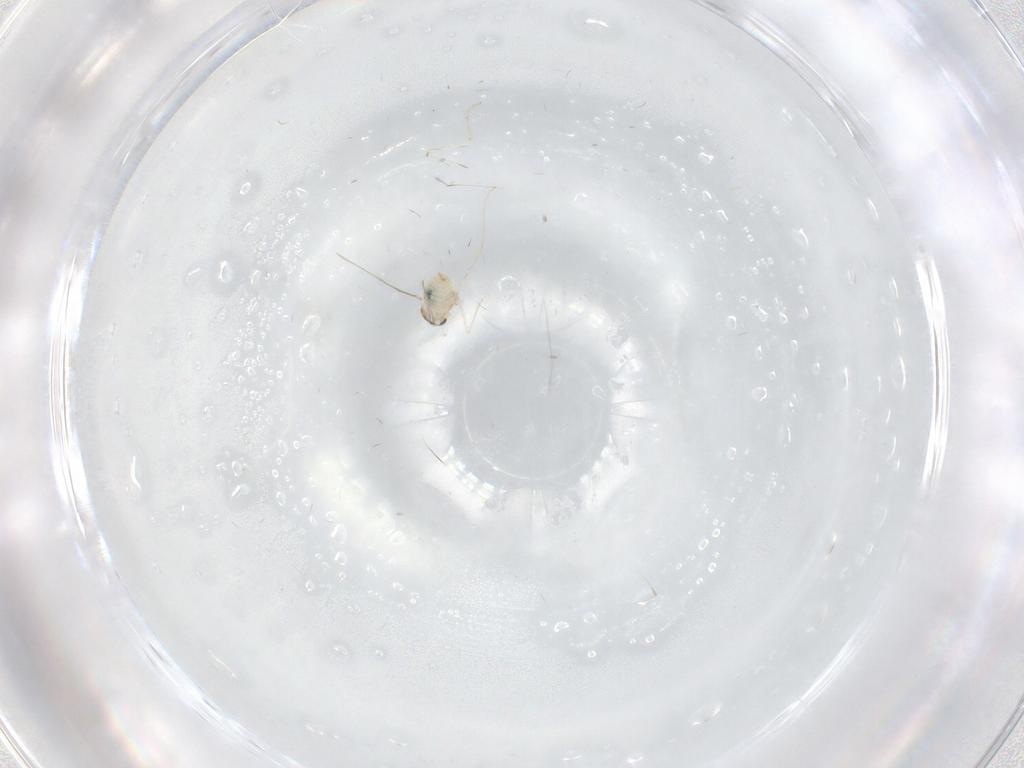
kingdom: Animalia
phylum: Arthropoda
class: Insecta
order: Diptera
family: Cecidomyiidae
